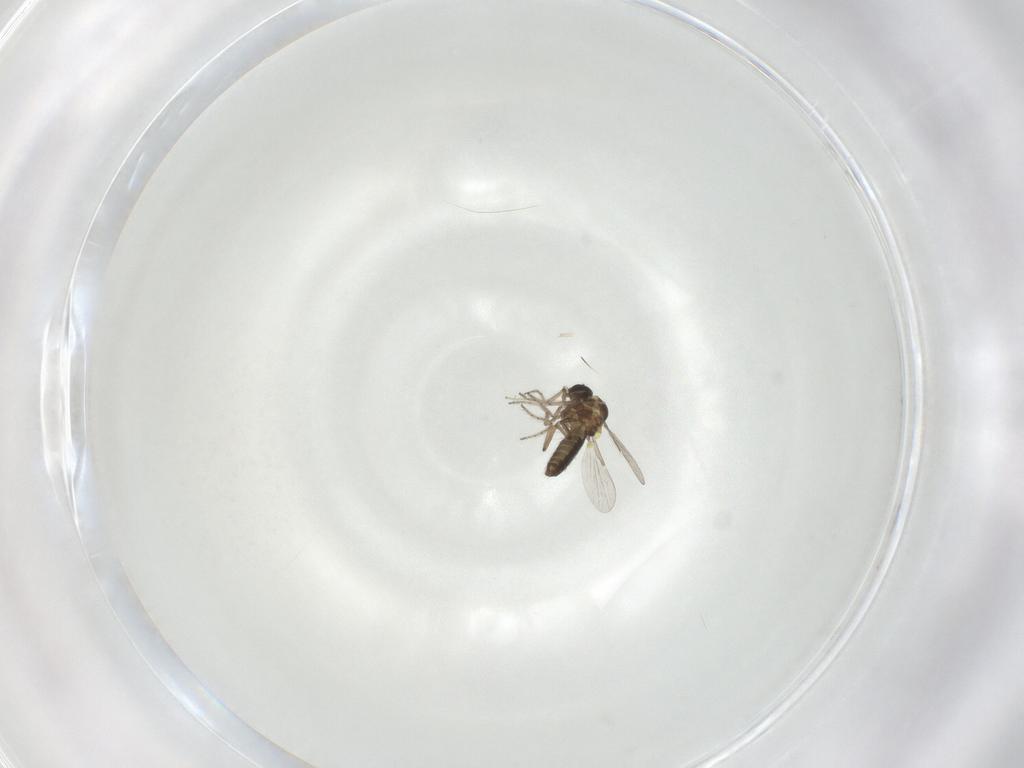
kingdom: Animalia
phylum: Arthropoda
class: Insecta
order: Diptera
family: Ceratopogonidae
